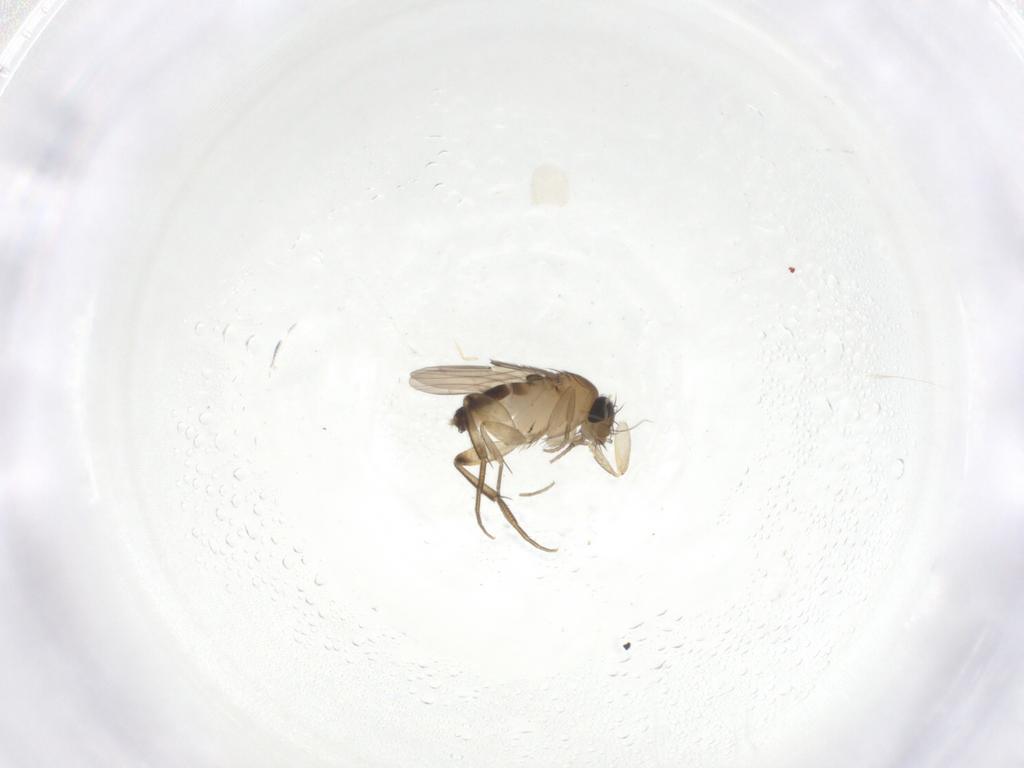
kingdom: Animalia
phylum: Arthropoda
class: Insecta
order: Diptera
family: Phoridae
